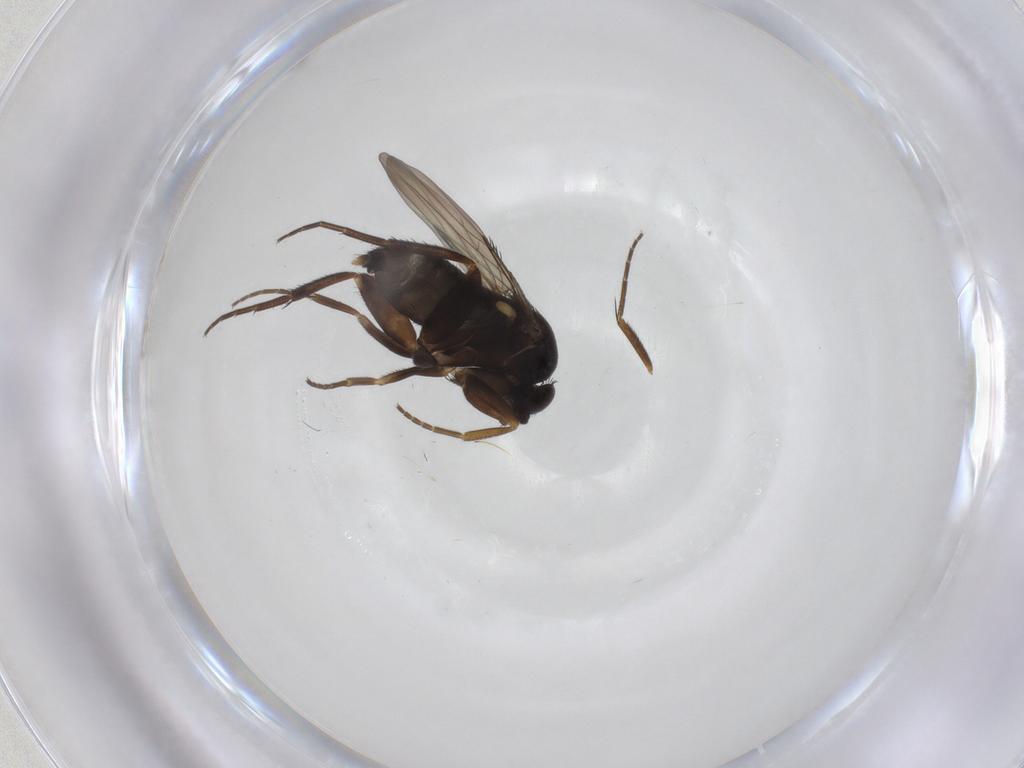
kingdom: Animalia
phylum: Arthropoda
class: Insecta
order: Diptera
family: Phoridae
